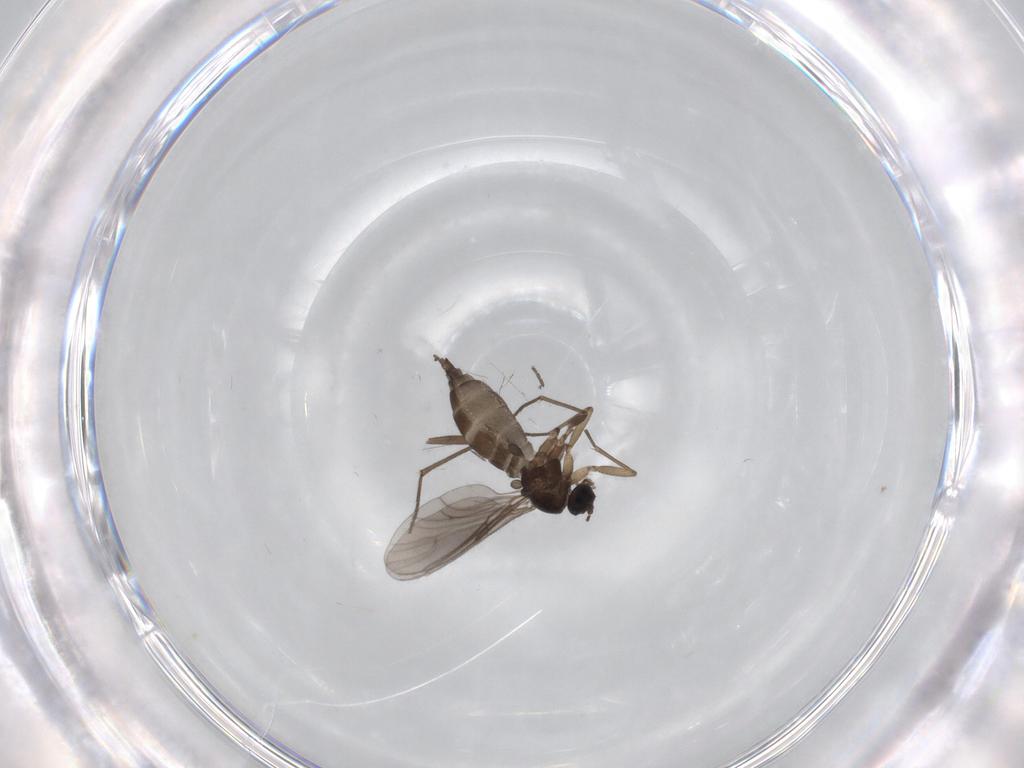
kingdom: Animalia
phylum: Arthropoda
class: Insecta
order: Diptera
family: Sciaridae
